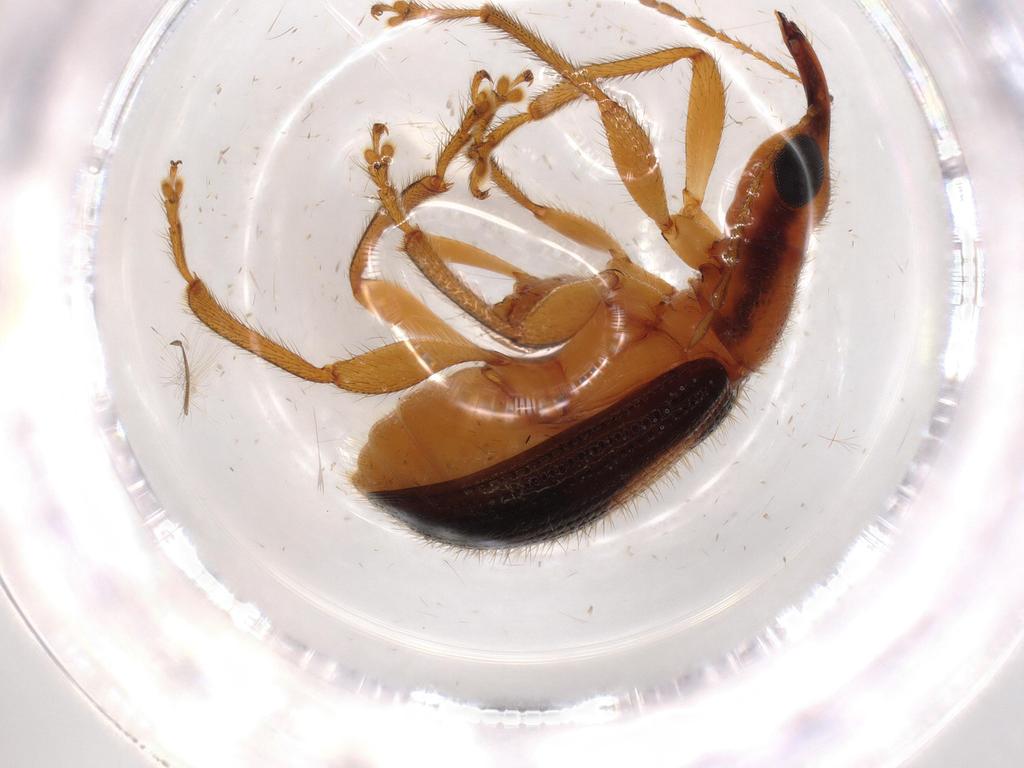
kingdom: Animalia
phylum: Arthropoda
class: Insecta
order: Coleoptera
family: Attelabidae
